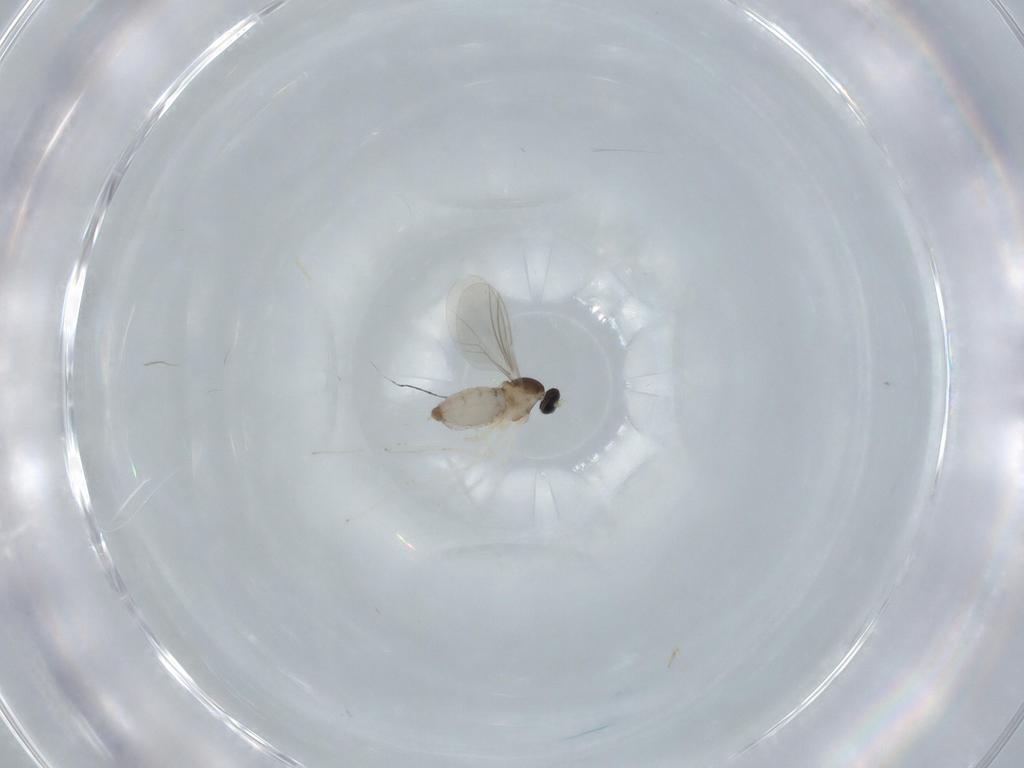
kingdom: Animalia
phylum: Arthropoda
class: Insecta
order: Diptera
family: Cecidomyiidae
